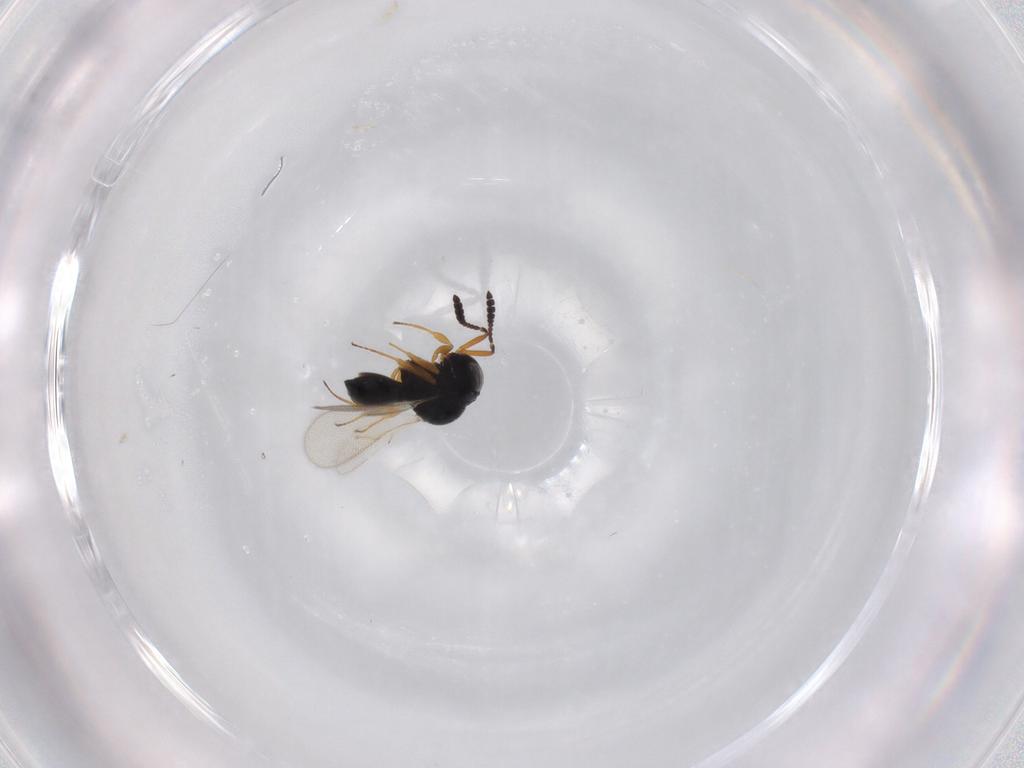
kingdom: Animalia
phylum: Arthropoda
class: Insecta
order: Hymenoptera
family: Scelionidae
